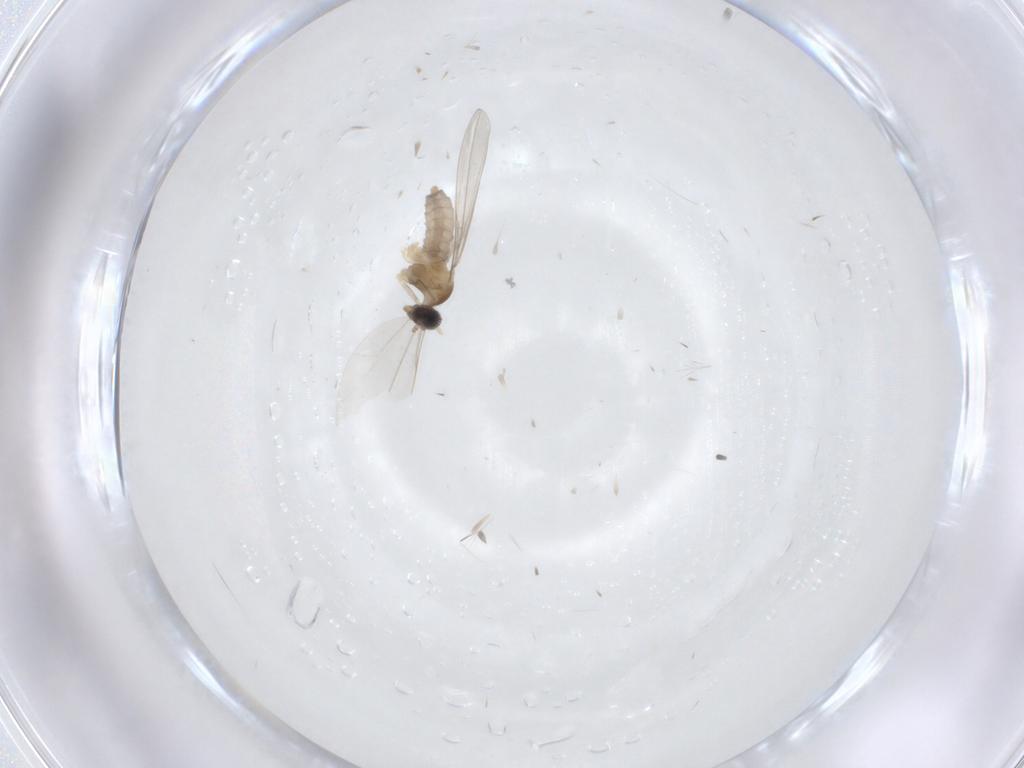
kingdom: Animalia
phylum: Arthropoda
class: Insecta
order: Diptera
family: Cecidomyiidae
